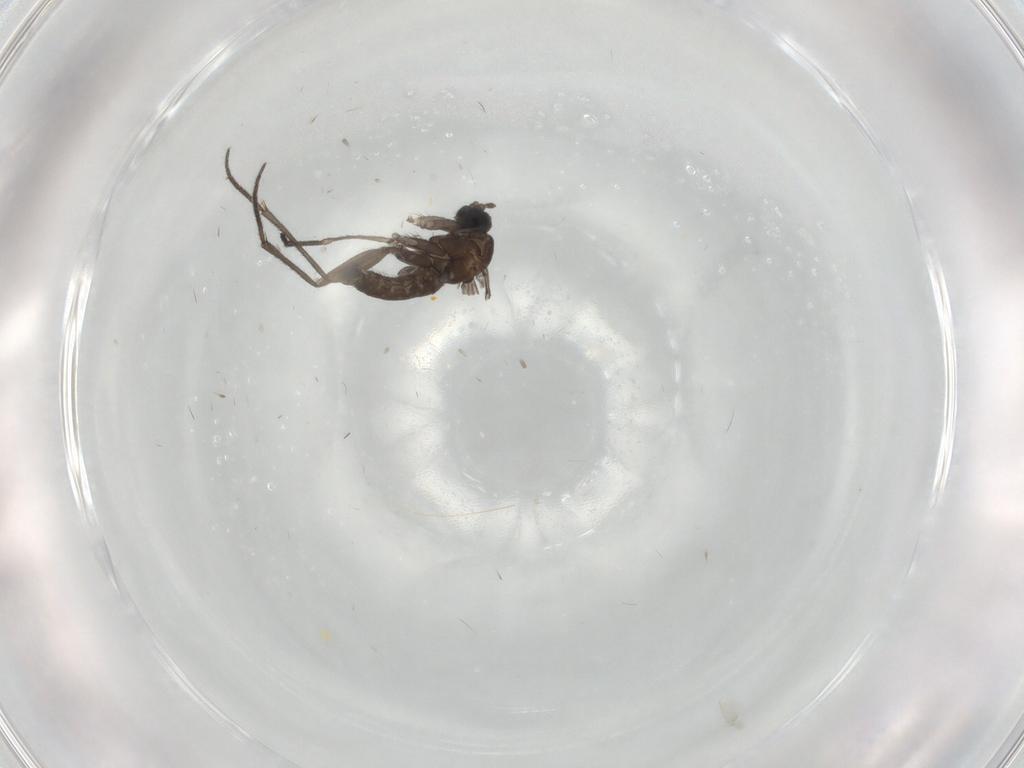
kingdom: Animalia
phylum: Arthropoda
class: Insecta
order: Diptera
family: Sciaridae
